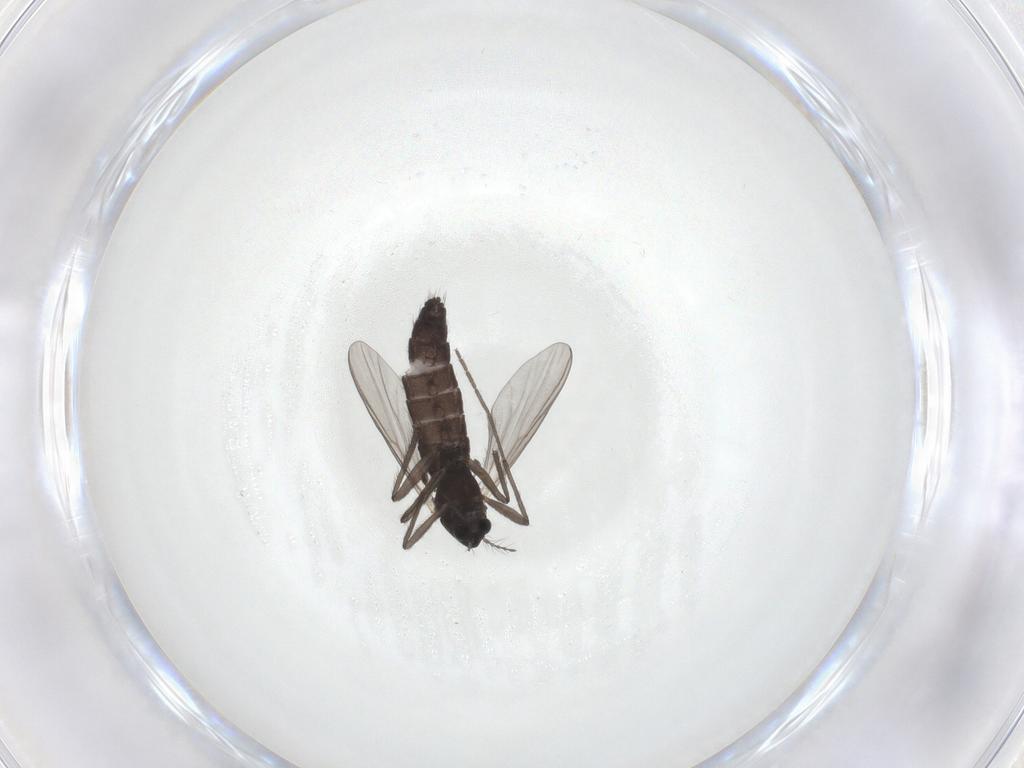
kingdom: Animalia
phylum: Arthropoda
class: Insecta
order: Diptera
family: Chironomidae
